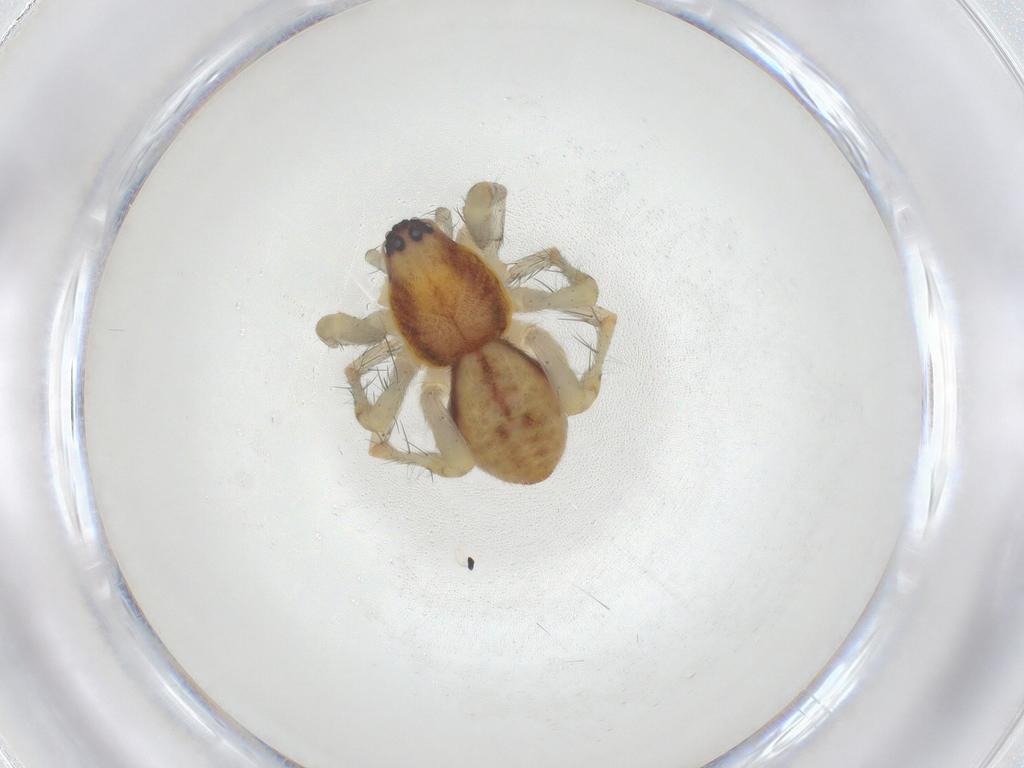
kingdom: Animalia
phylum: Arthropoda
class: Arachnida
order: Araneae
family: Anyphaenidae
